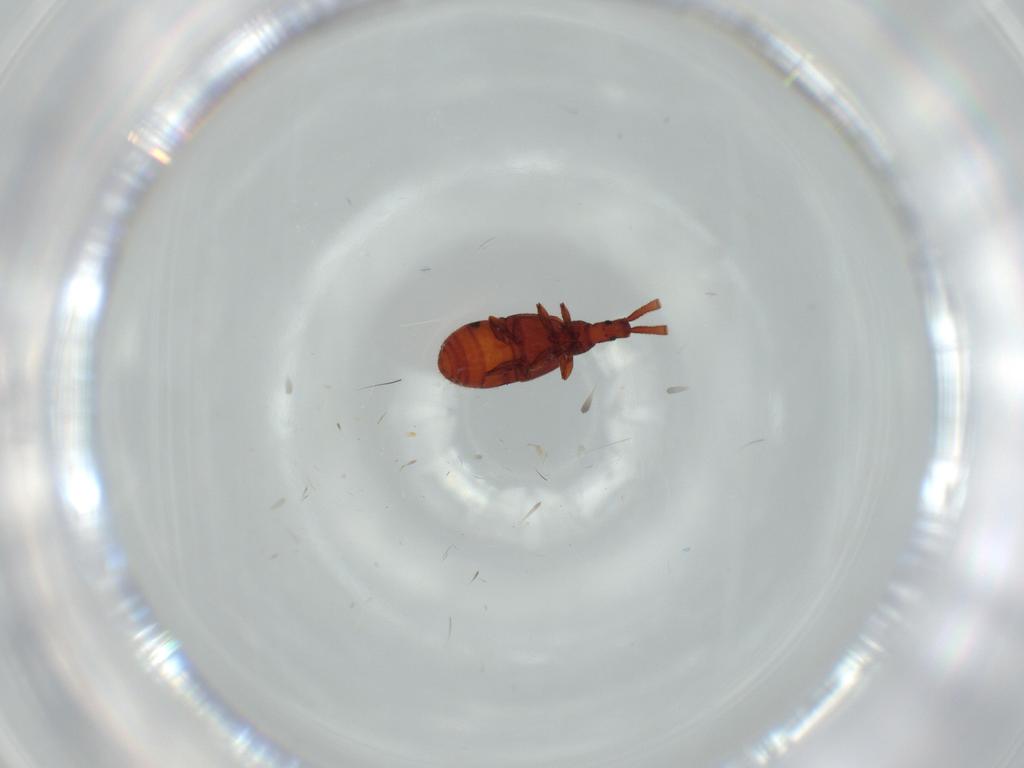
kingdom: Animalia
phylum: Arthropoda
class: Insecta
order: Coleoptera
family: Staphylinidae
